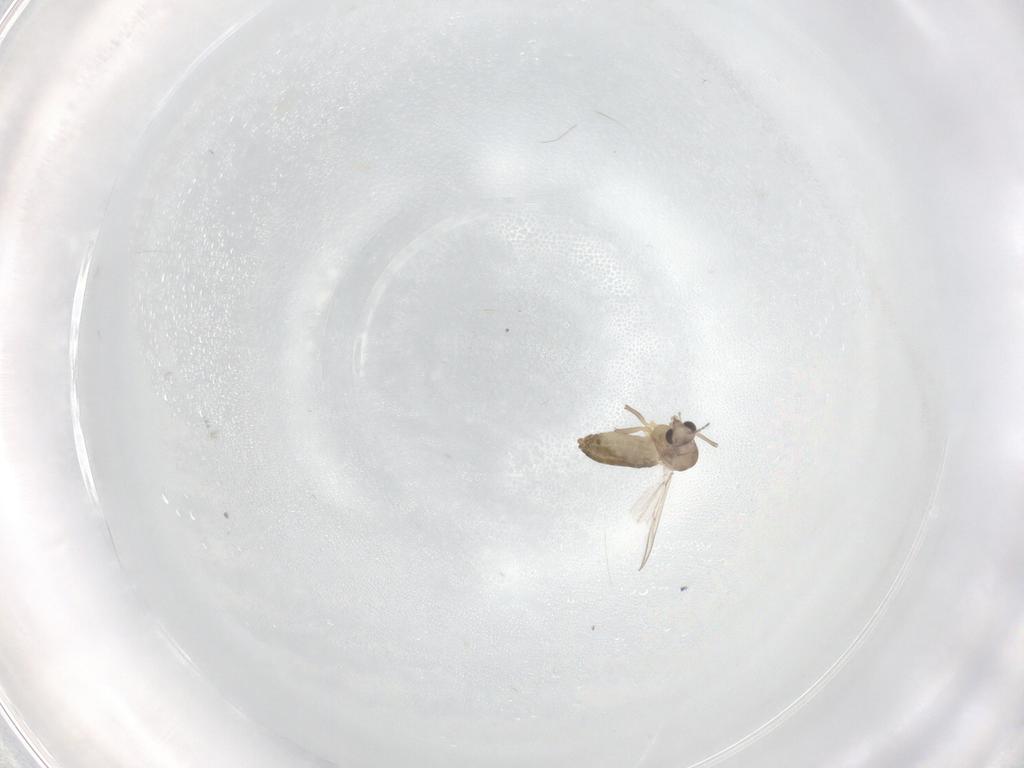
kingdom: Animalia
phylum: Arthropoda
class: Insecta
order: Diptera
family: Chironomidae
